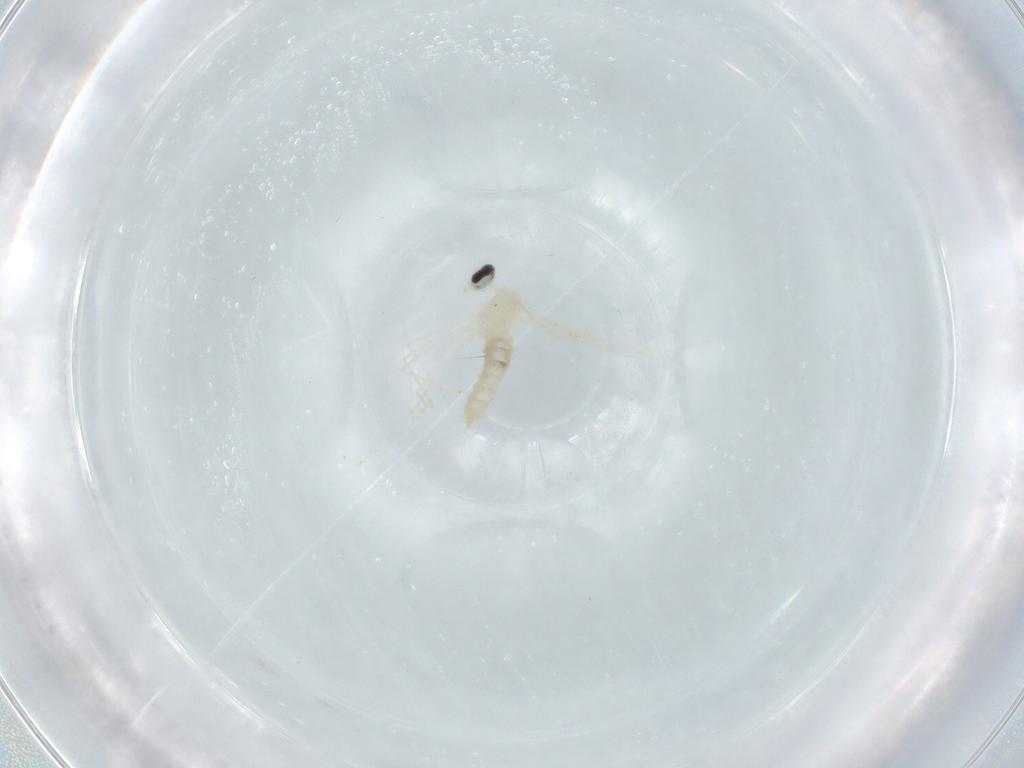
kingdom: Animalia
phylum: Arthropoda
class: Insecta
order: Diptera
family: Cecidomyiidae
